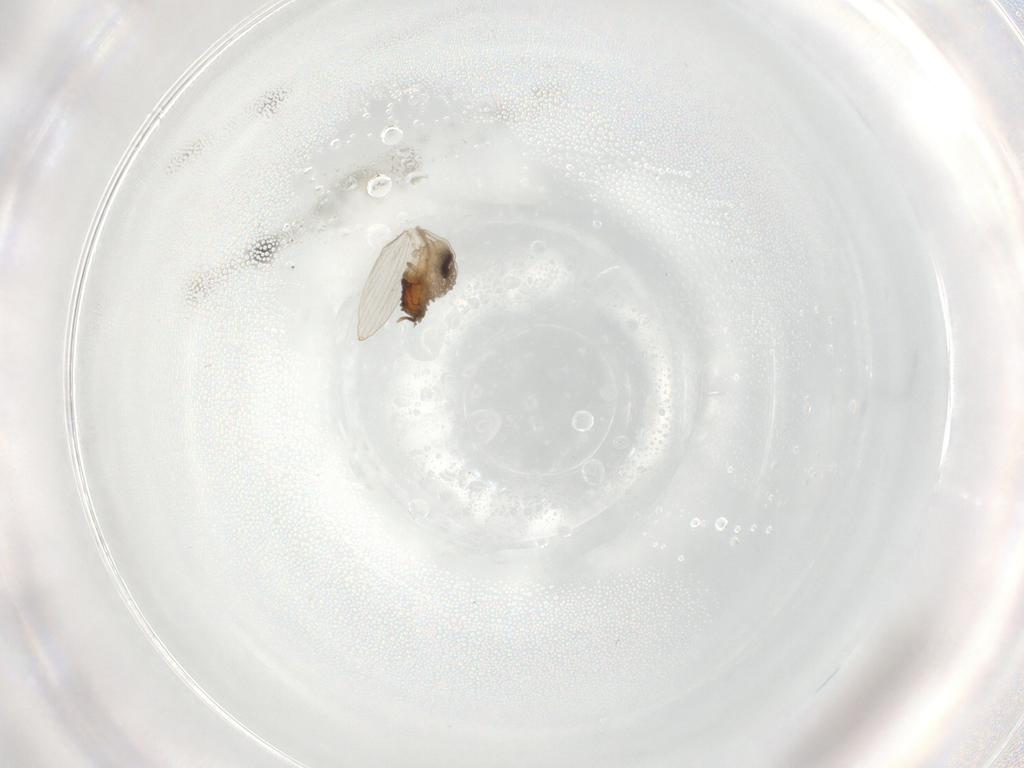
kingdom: Animalia
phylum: Arthropoda
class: Insecta
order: Diptera
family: Psychodidae
